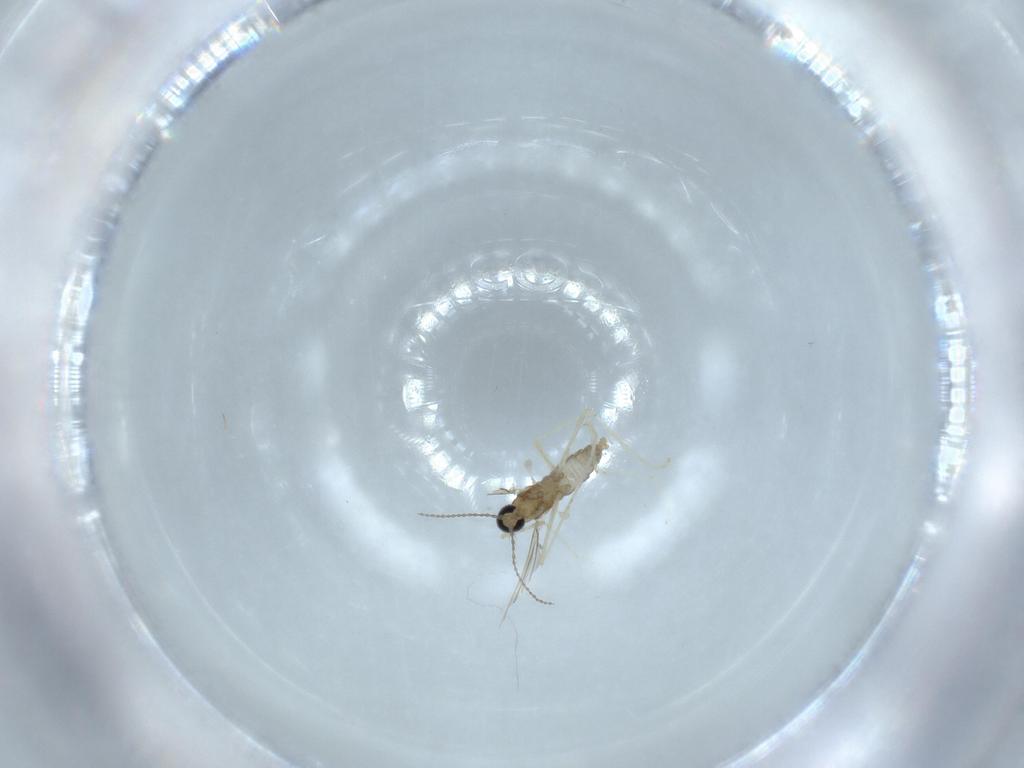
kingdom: Animalia
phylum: Arthropoda
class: Insecta
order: Diptera
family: Cecidomyiidae
